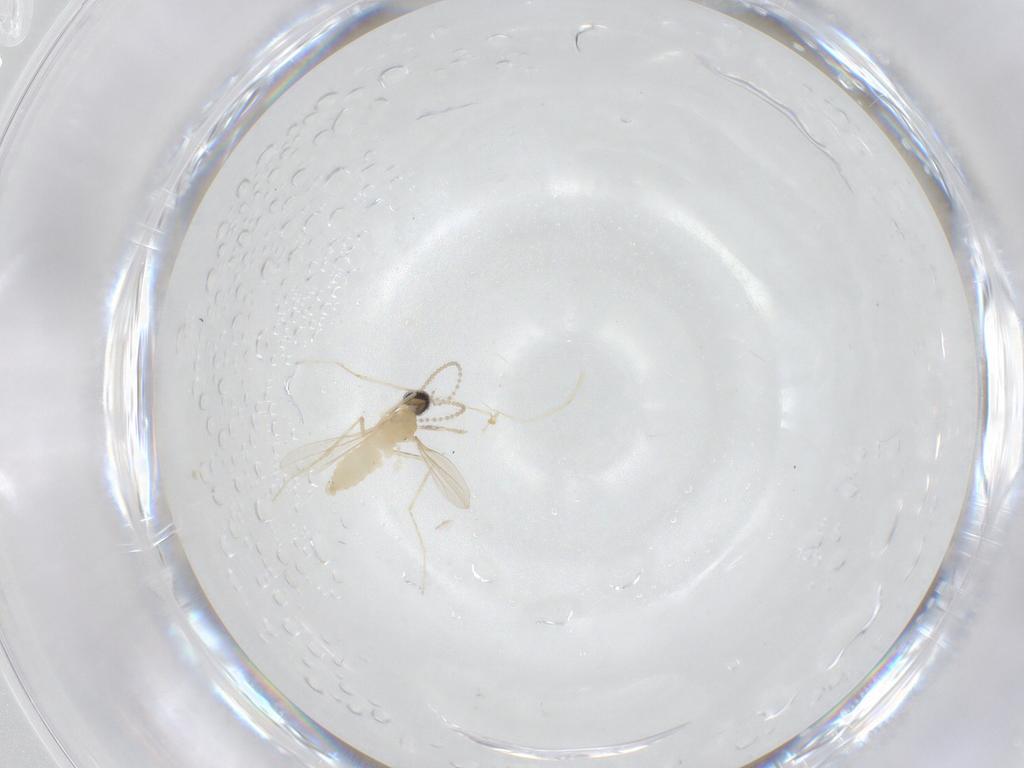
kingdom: Animalia
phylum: Arthropoda
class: Insecta
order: Diptera
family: Cecidomyiidae
